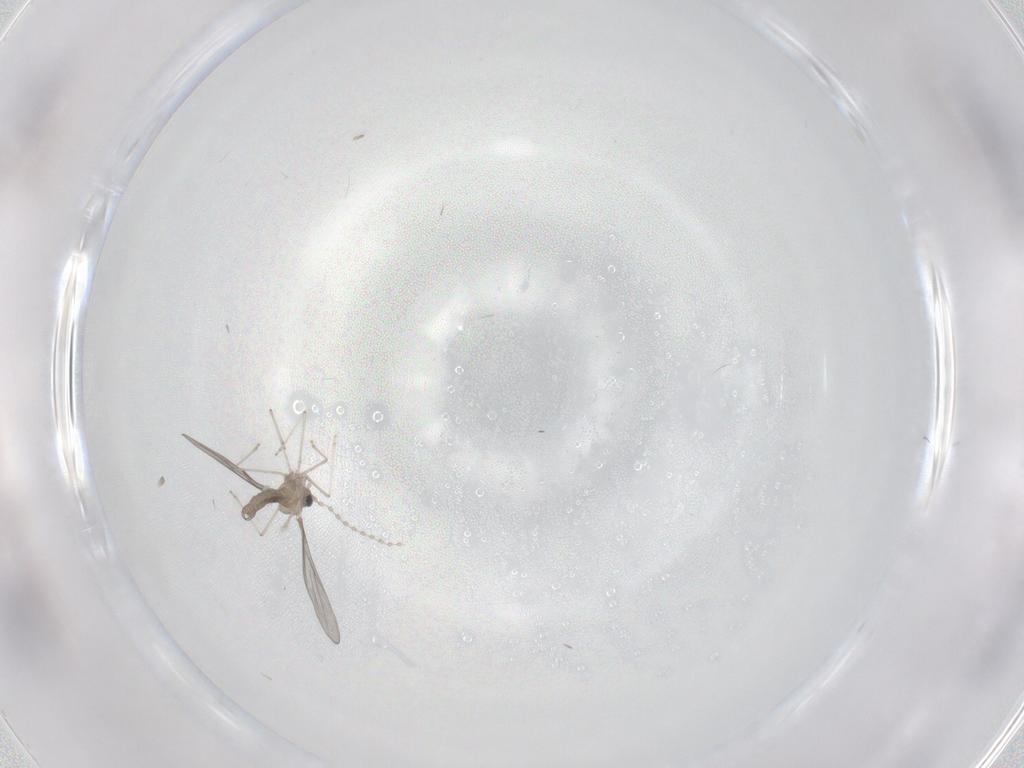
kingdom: Animalia
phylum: Arthropoda
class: Insecta
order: Diptera
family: Cecidomyiidae
